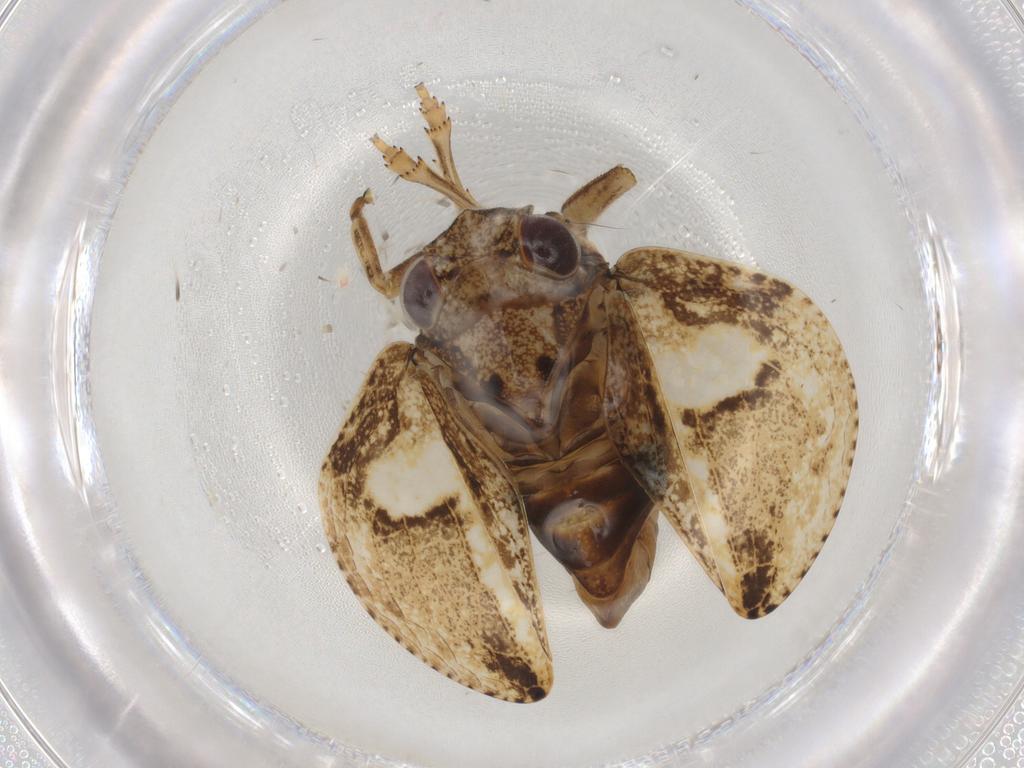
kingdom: Animalia
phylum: Arthropoda
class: Insecta
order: Hemiptera
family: Acanaloniidae
